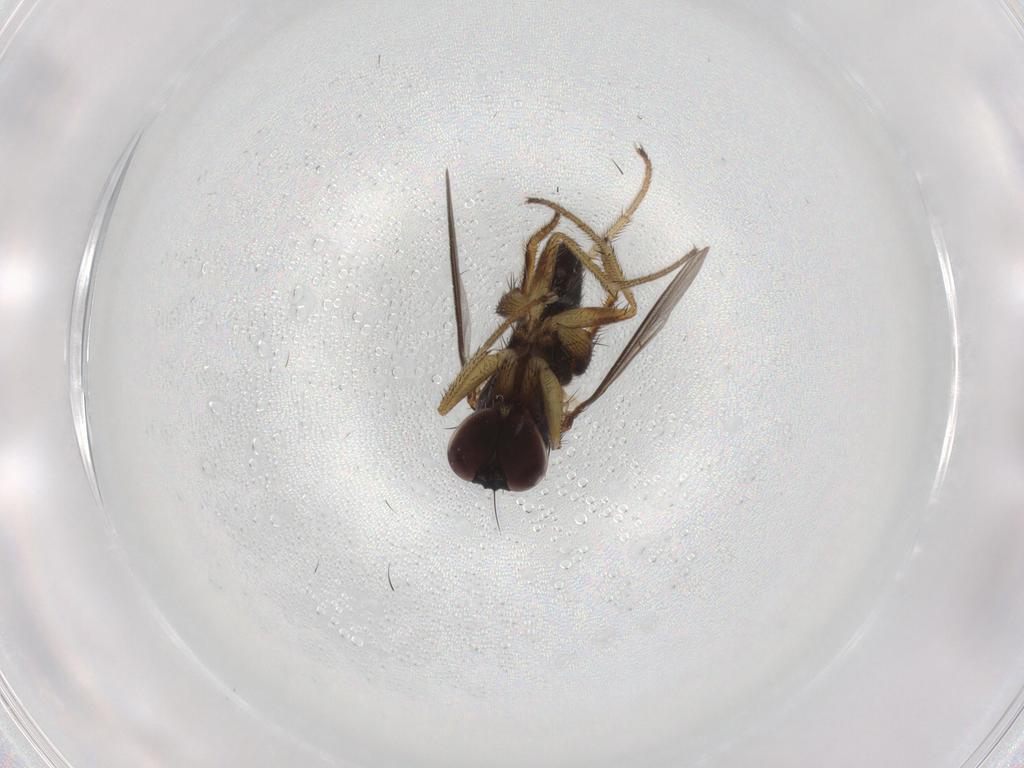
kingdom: Animalia
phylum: Arthropoda
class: Insecta
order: Diptera
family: Dolichopodidae
